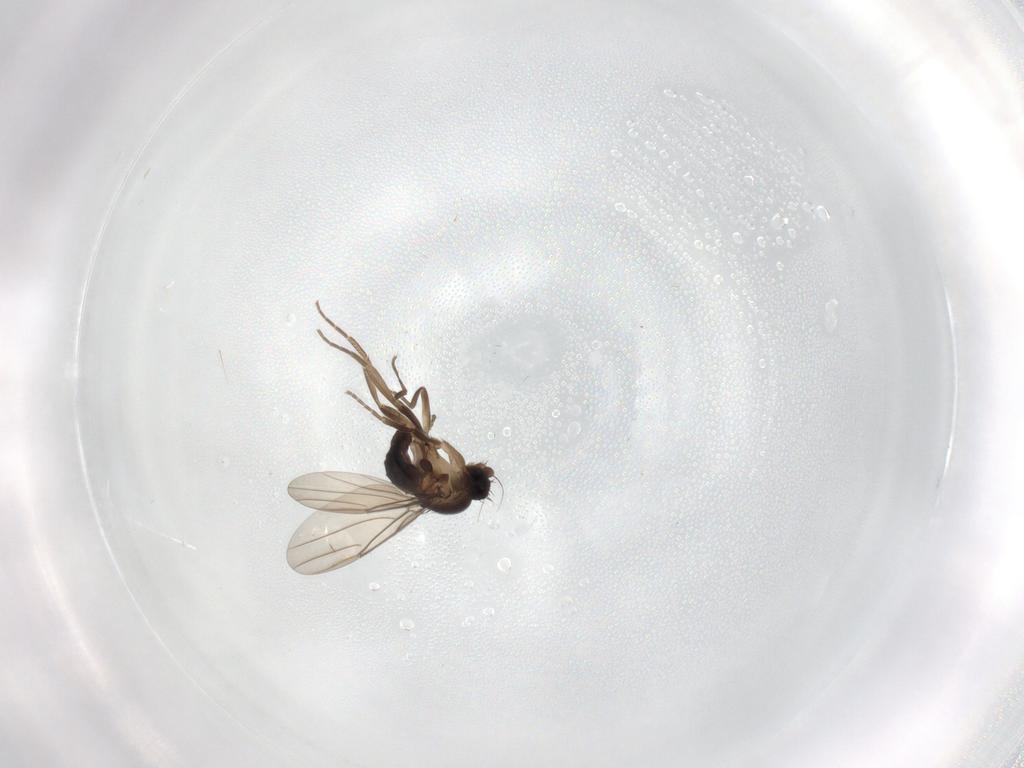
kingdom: Animalia
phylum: Arthropoda
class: Insecta
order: Diptera
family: Phoridae
